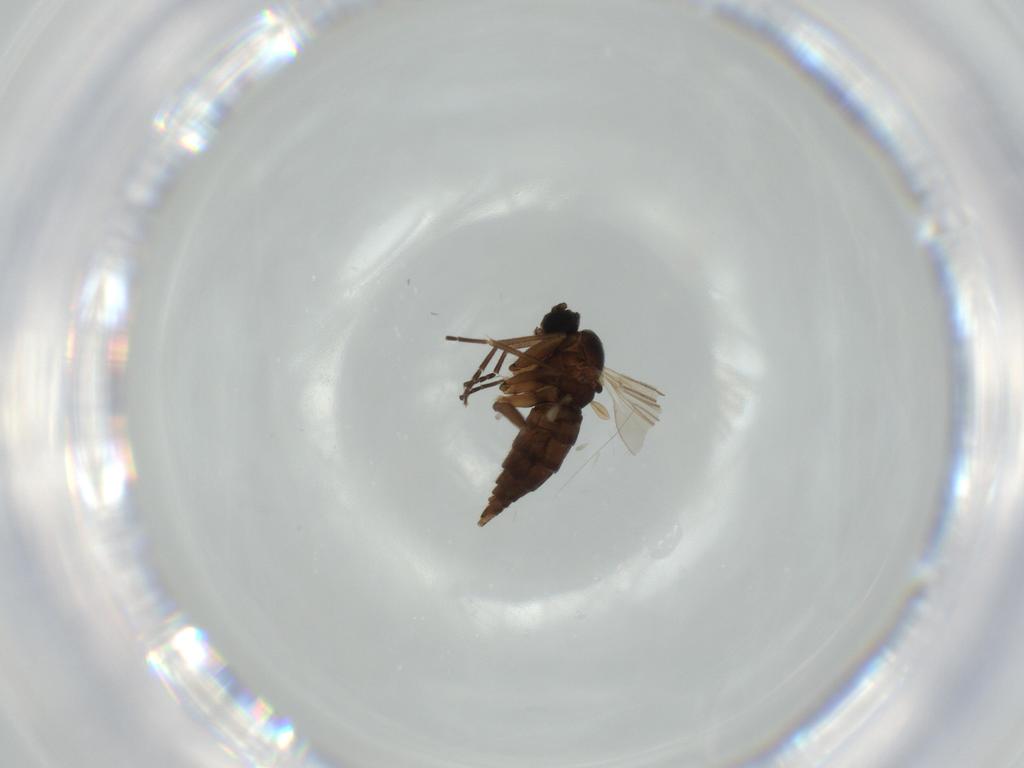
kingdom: Animalia
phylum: Arthropoda
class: Insecta
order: Diptera
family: Sciaridae
